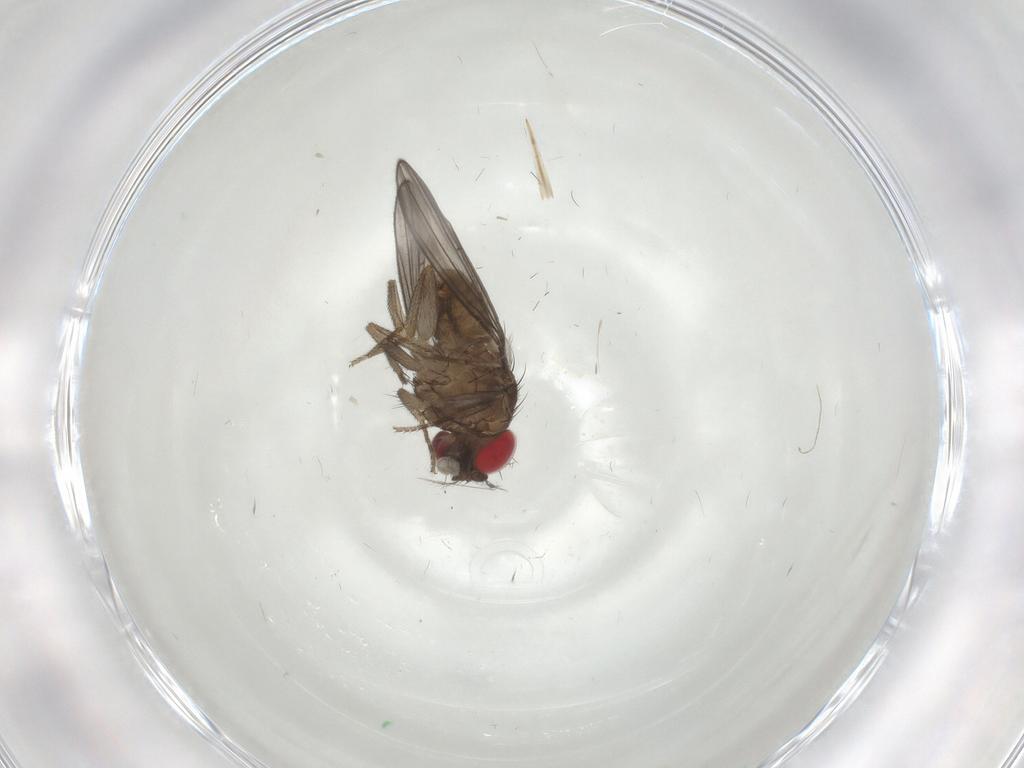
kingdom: Animalia
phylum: Arthropoda
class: Insecta
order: Diptera
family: Drosophilidae
